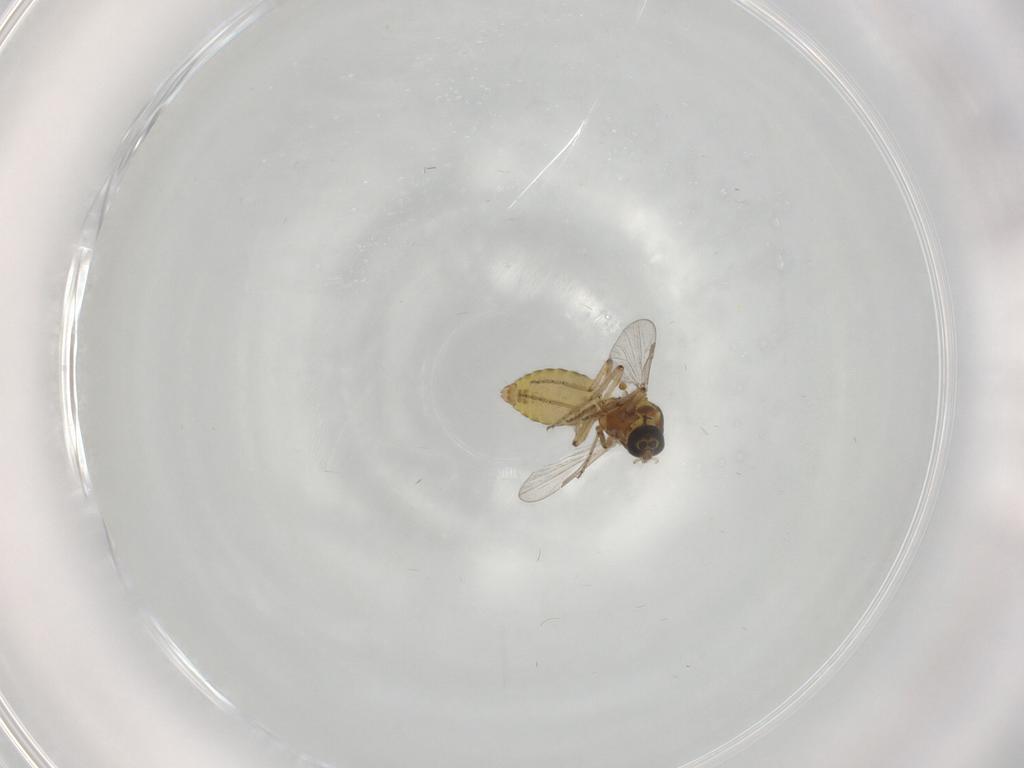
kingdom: Animalia
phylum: Arthropoda
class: Insecta
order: Diptera
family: Ceratopogonidae
